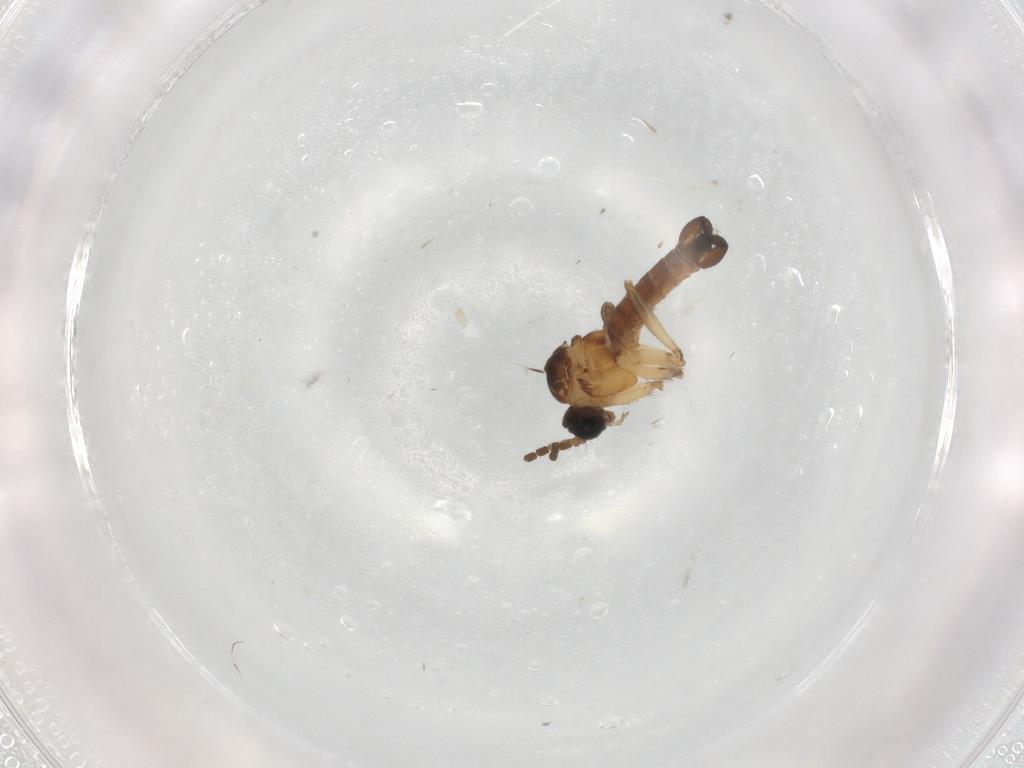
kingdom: Animalia
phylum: Arthropoda
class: Insecta
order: Diptera
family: Sciaridae
